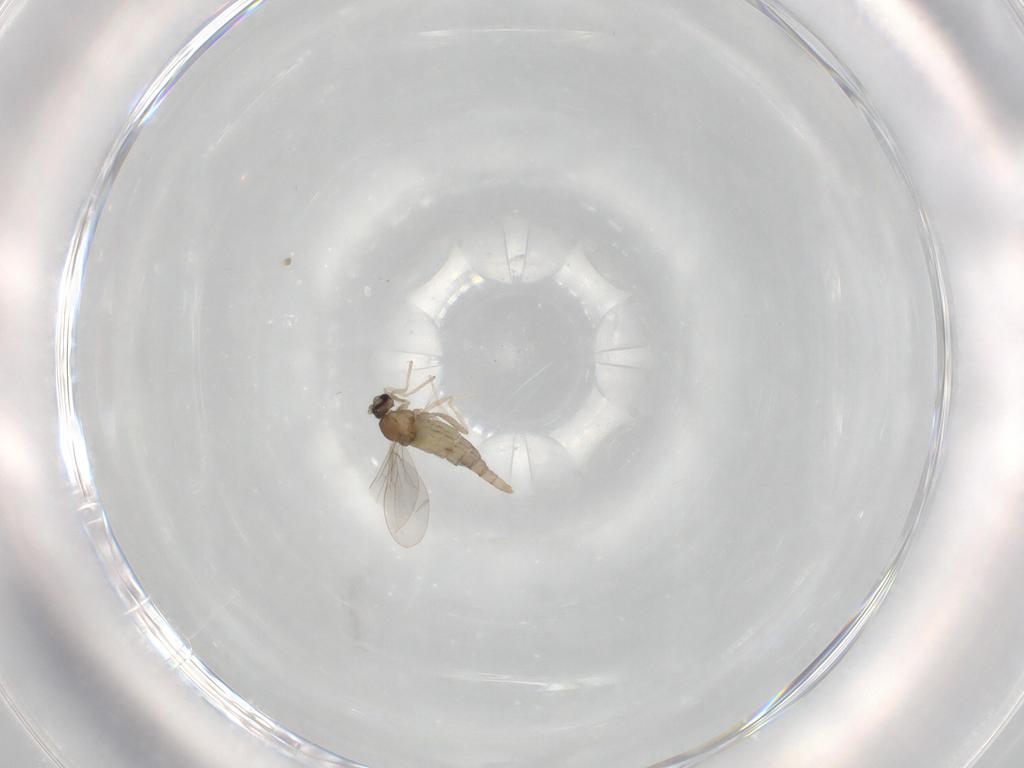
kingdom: Animalia
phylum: Arthropoda
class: Insecta
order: Diptera
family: Cecidomyiidae
